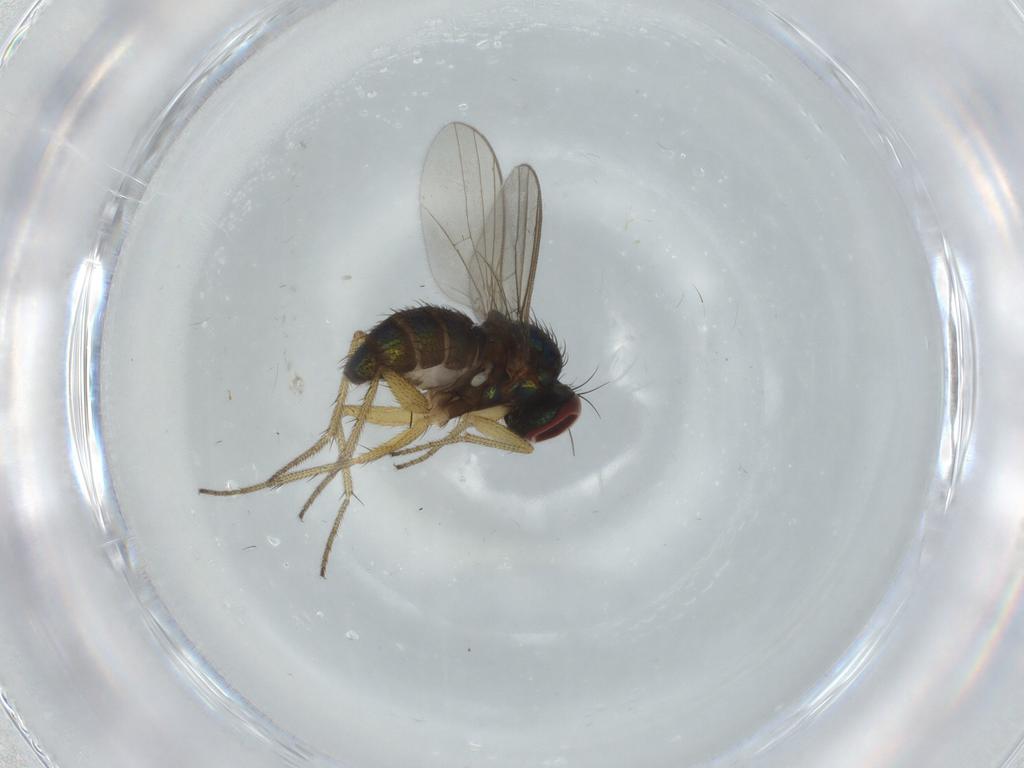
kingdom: Animalia
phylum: Arthropoda
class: Insecta
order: Diptera
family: Dolichopodidae
